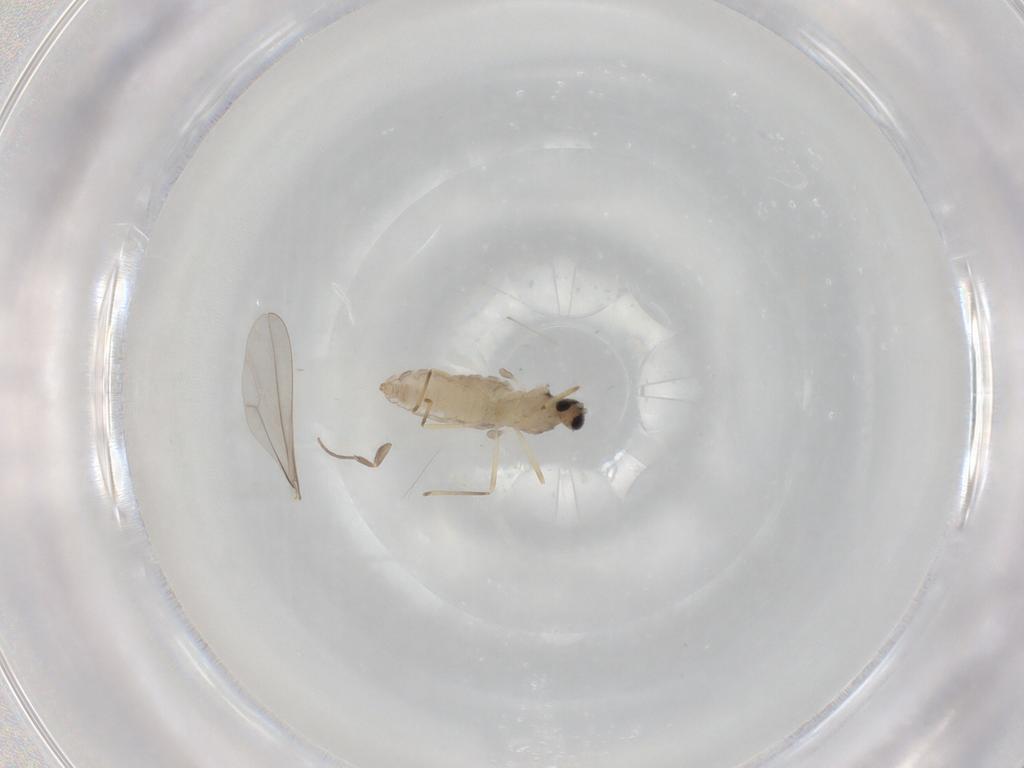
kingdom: Animalia
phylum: Arthropoda
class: Insecta
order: Diptera
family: Cecidomyiidae
